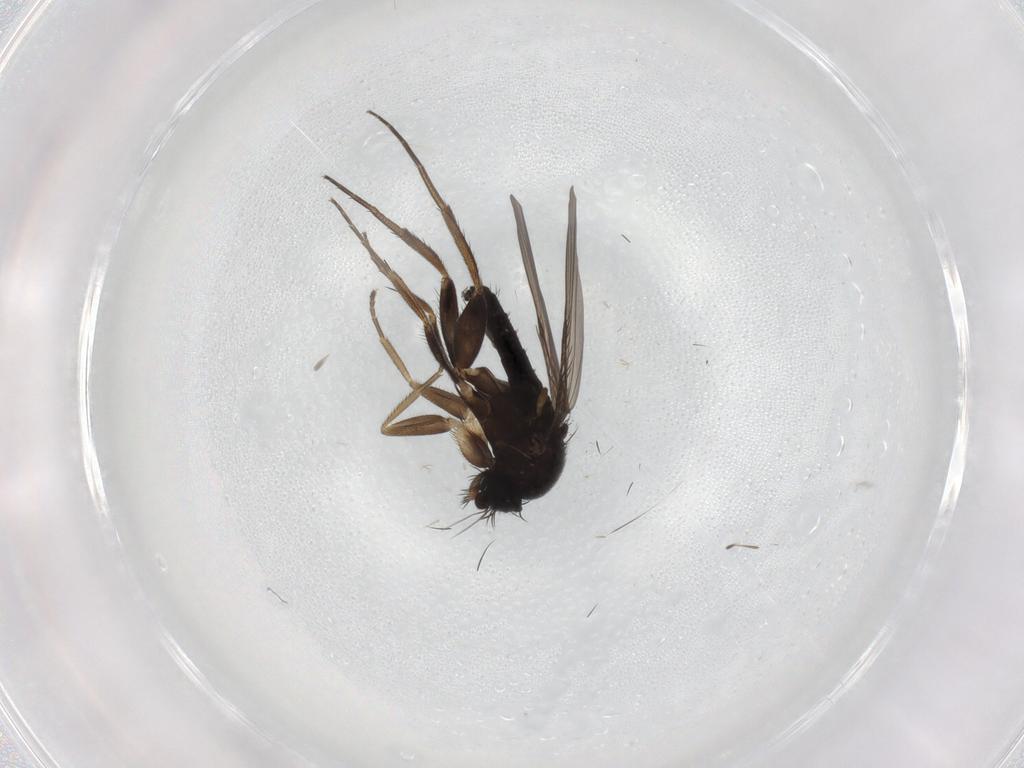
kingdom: Animalia
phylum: Arthropoda
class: Insecta
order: Diptera
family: Phoridae
